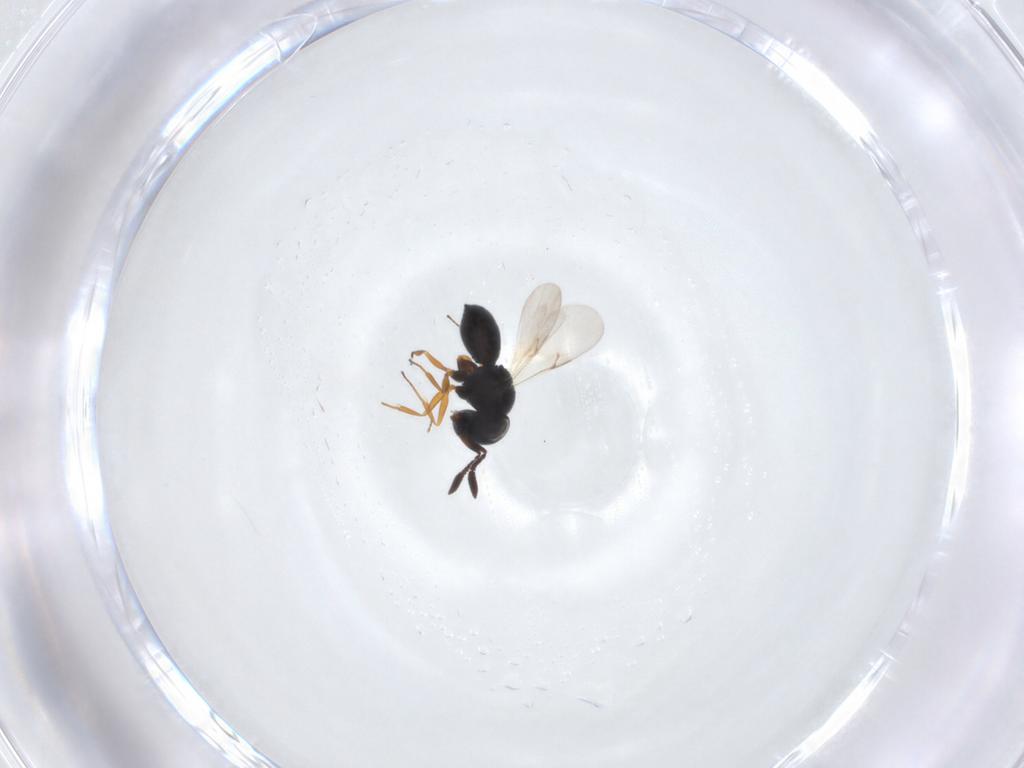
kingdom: Animalia
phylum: Arthropoda
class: Insecta
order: Hymenoptera
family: Scelionidae
